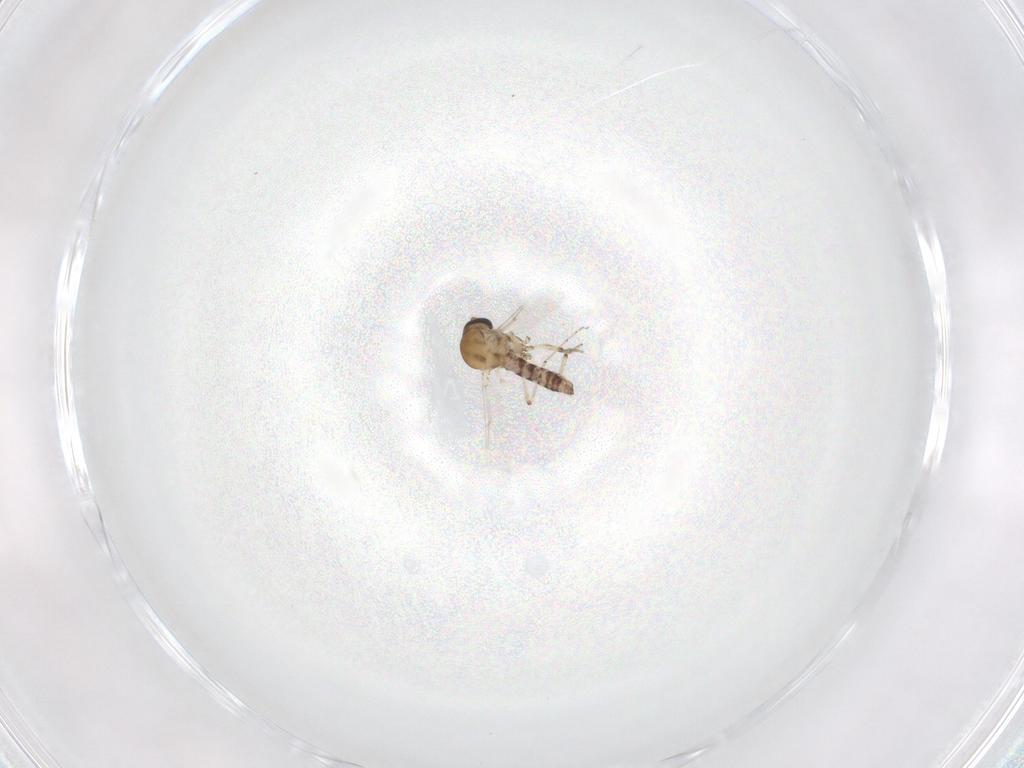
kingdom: Animalia
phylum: Arthropoda
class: Insecta
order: Diptera
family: Ceratopogonidae
